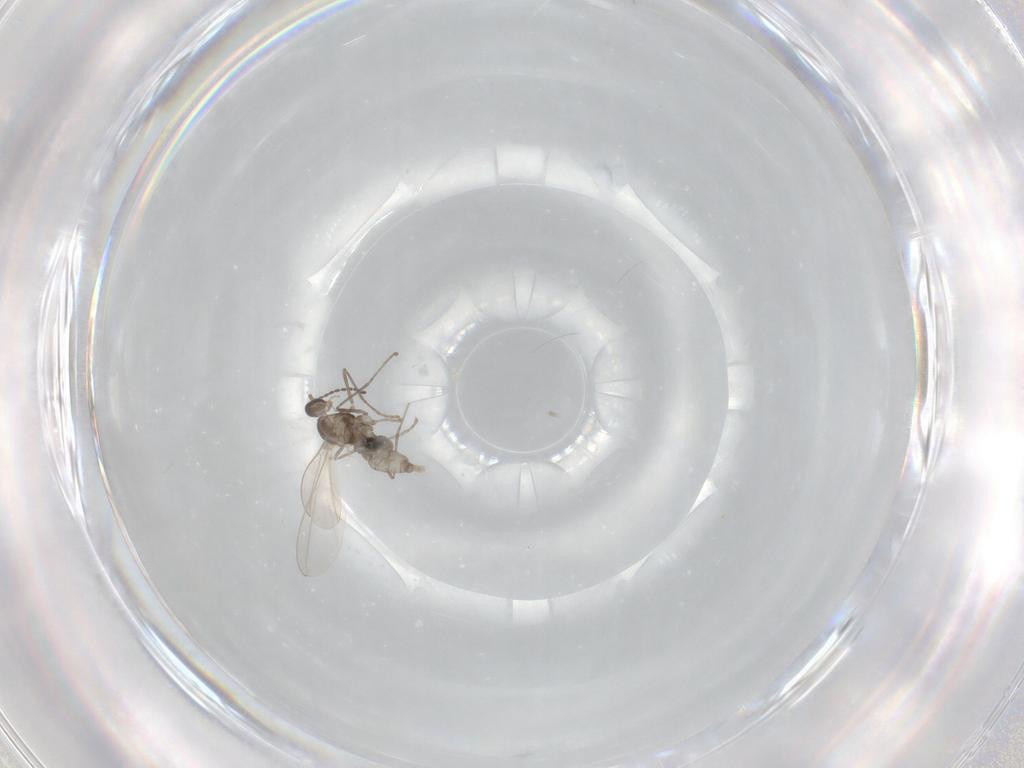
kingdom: Animalia
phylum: Arthropoda
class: Insecta
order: Diptera
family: Cecidomyiidae
